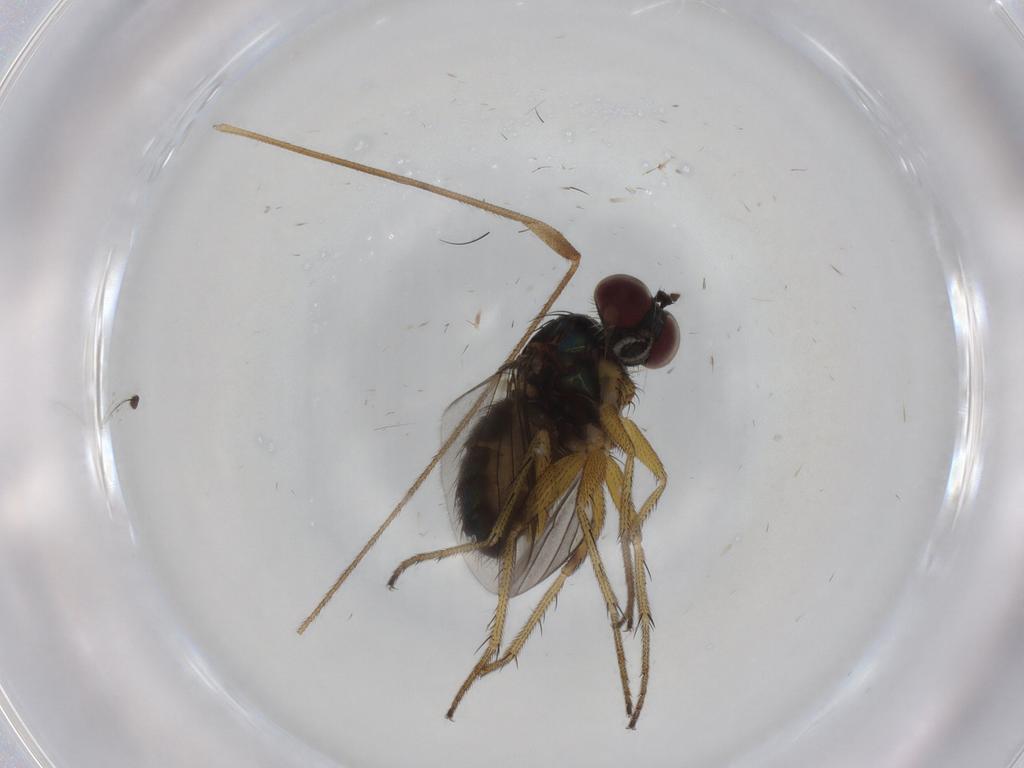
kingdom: Animalia
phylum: Arthropoda
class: Insecta
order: Diptera
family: Dolichopodidae
